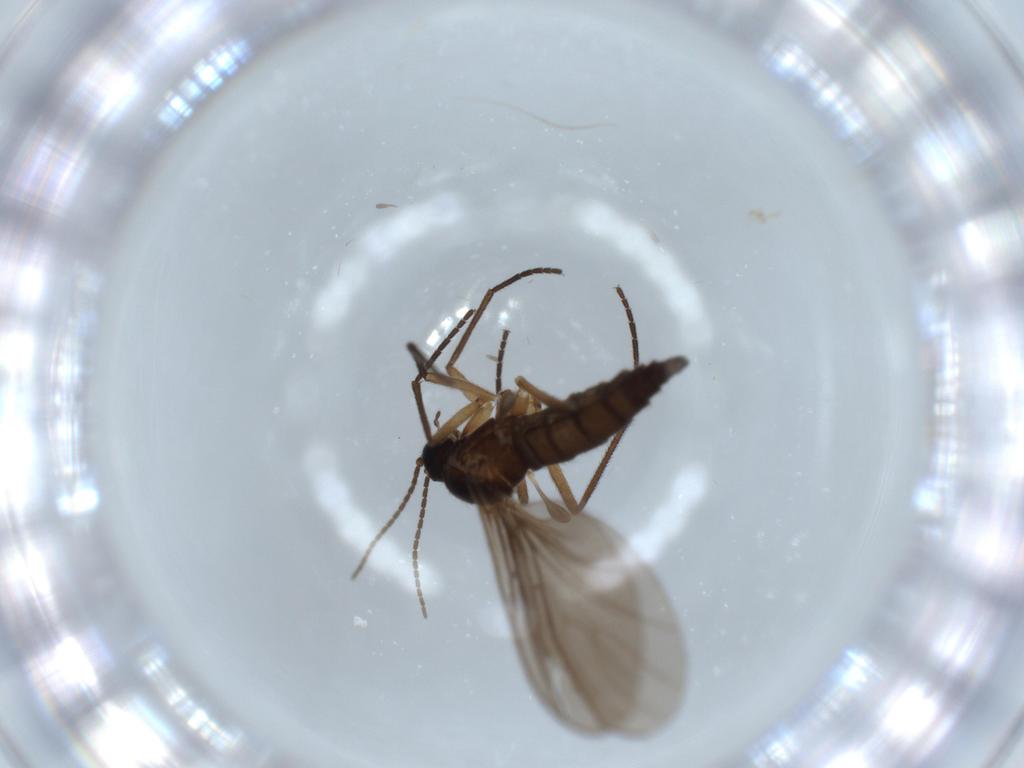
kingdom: Animalia
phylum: Arthropoda
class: Insecta
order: Diptera
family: Sciaridae
